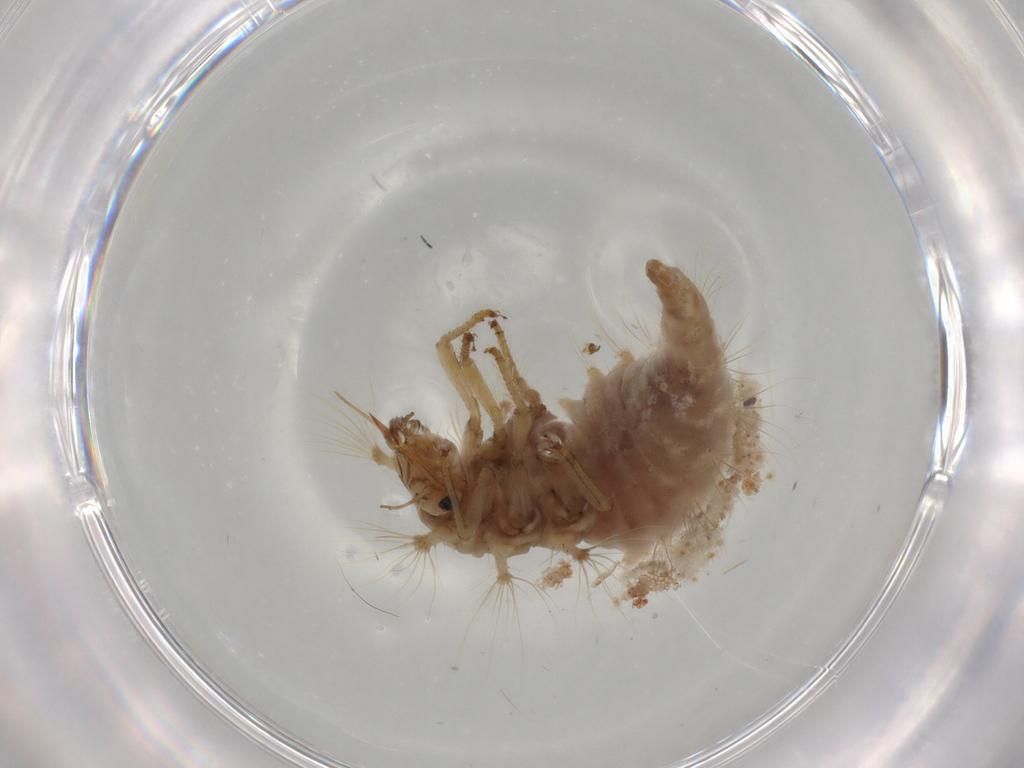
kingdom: Animalia
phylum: Arthropoda
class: Insecta
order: Neuroptera
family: Chrysopidae
